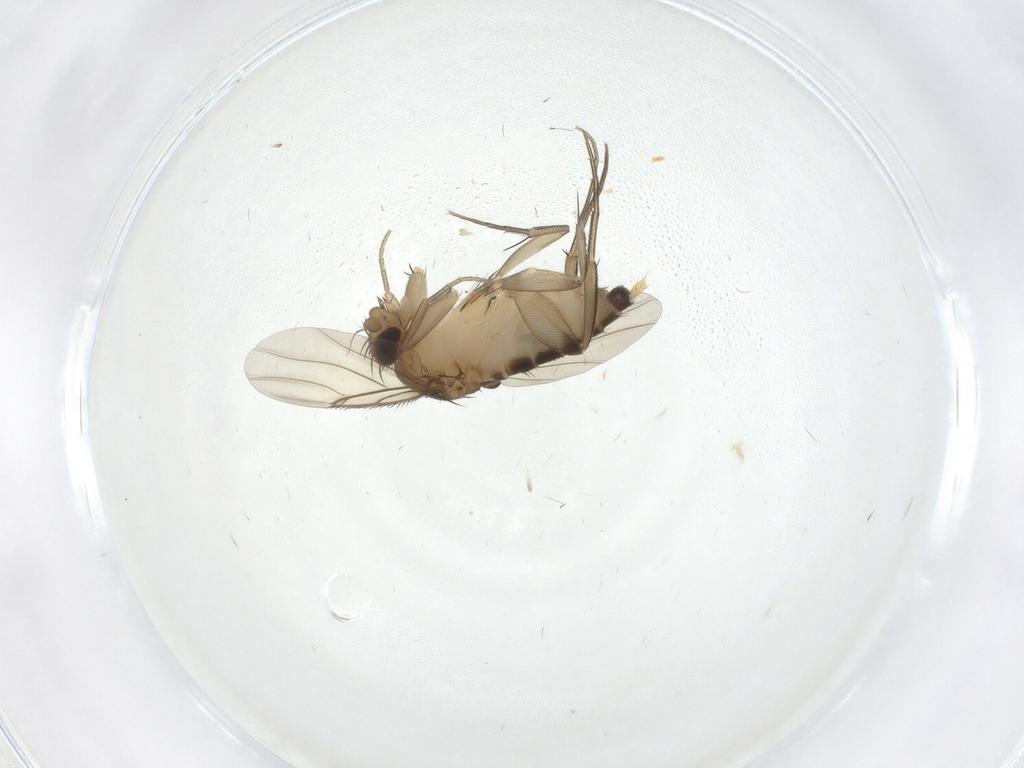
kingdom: Animalia
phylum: Arthropoda
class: Insecta
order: Diptera
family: Phoridae
